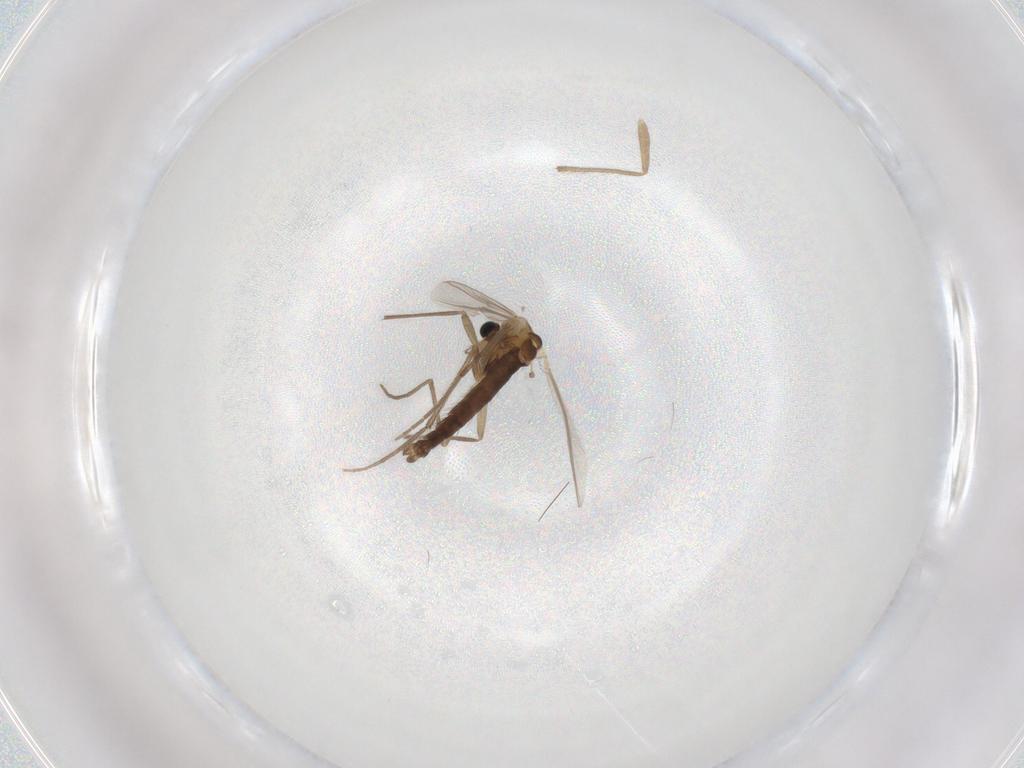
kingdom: Animalia
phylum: Arthropoda
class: Insecta
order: Diptera
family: Chironomidae
